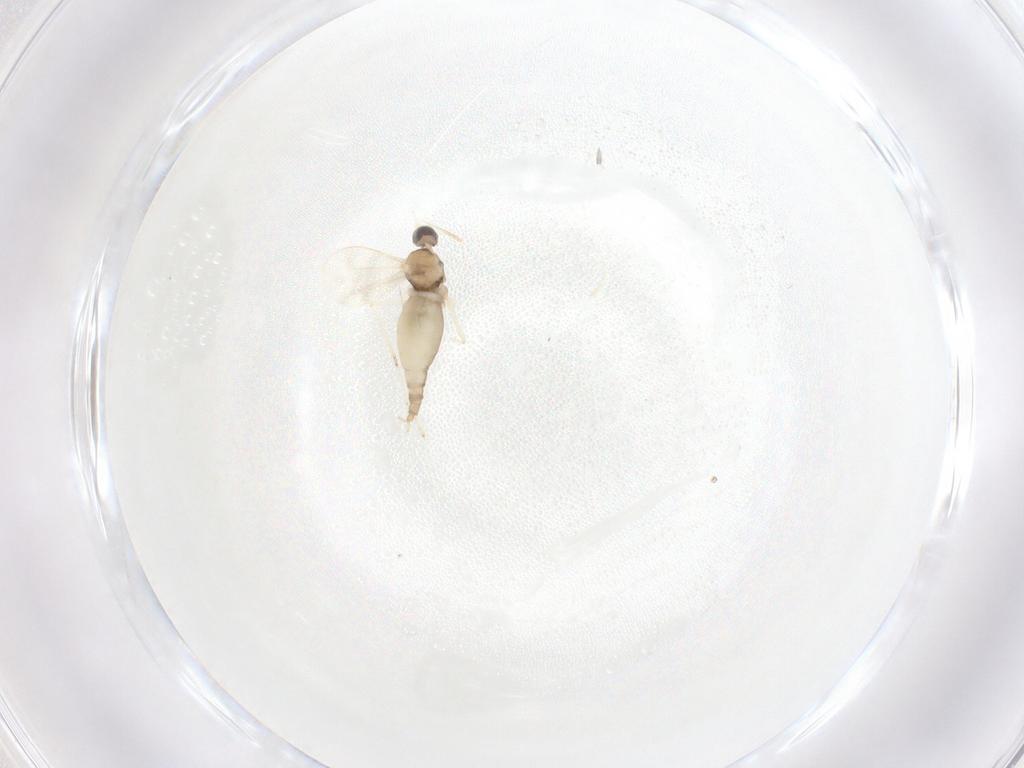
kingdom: Animalia
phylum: Arthropoda
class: Insecta
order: Diptera
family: Cecidomyiidae
